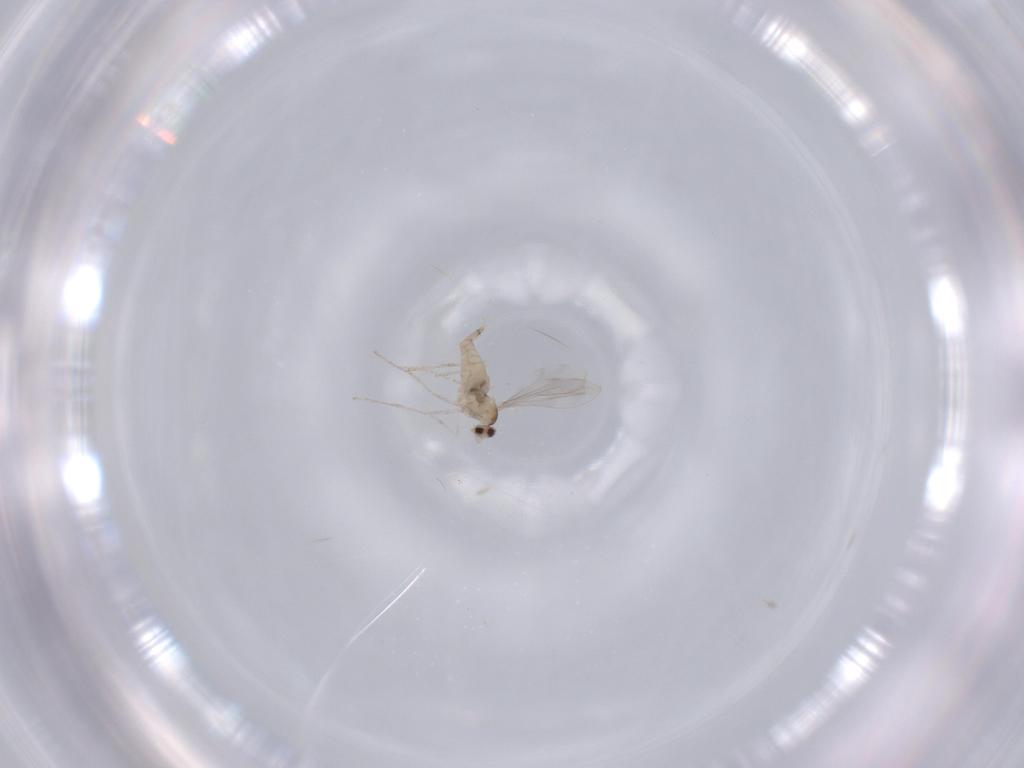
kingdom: Animalia
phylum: Arthropoda
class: Insecta
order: Diptera
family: Cecidomyiidae
